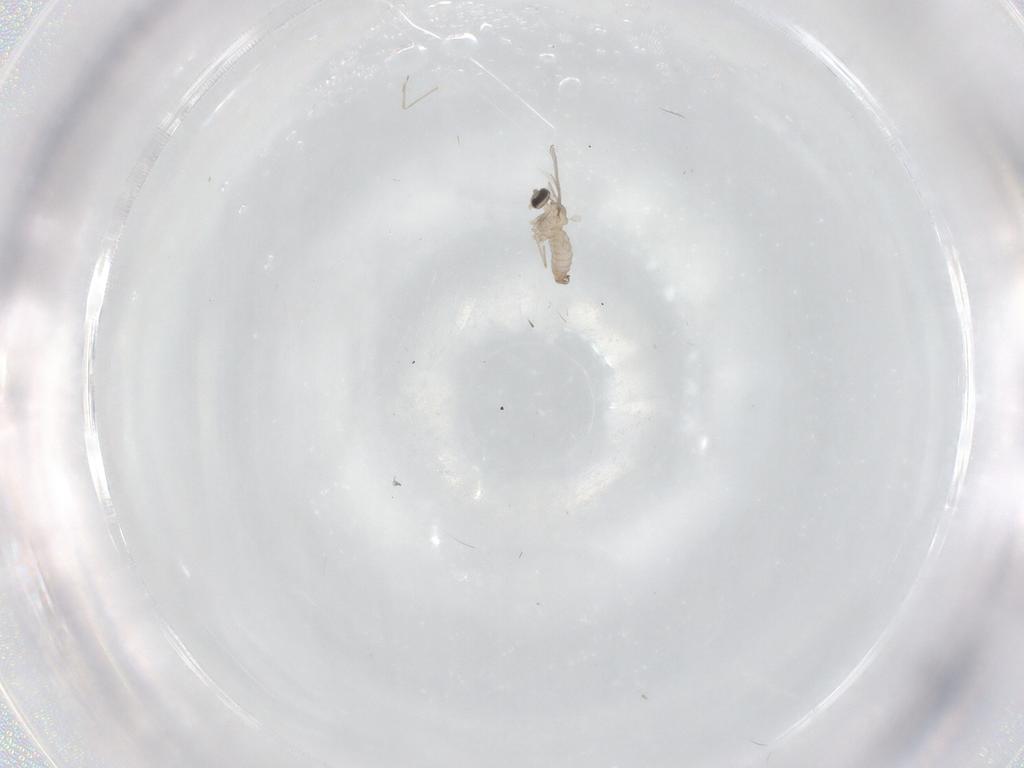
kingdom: Animalia
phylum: Arthropoda
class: Insecta
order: Diptera
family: Cecidomyiidae
